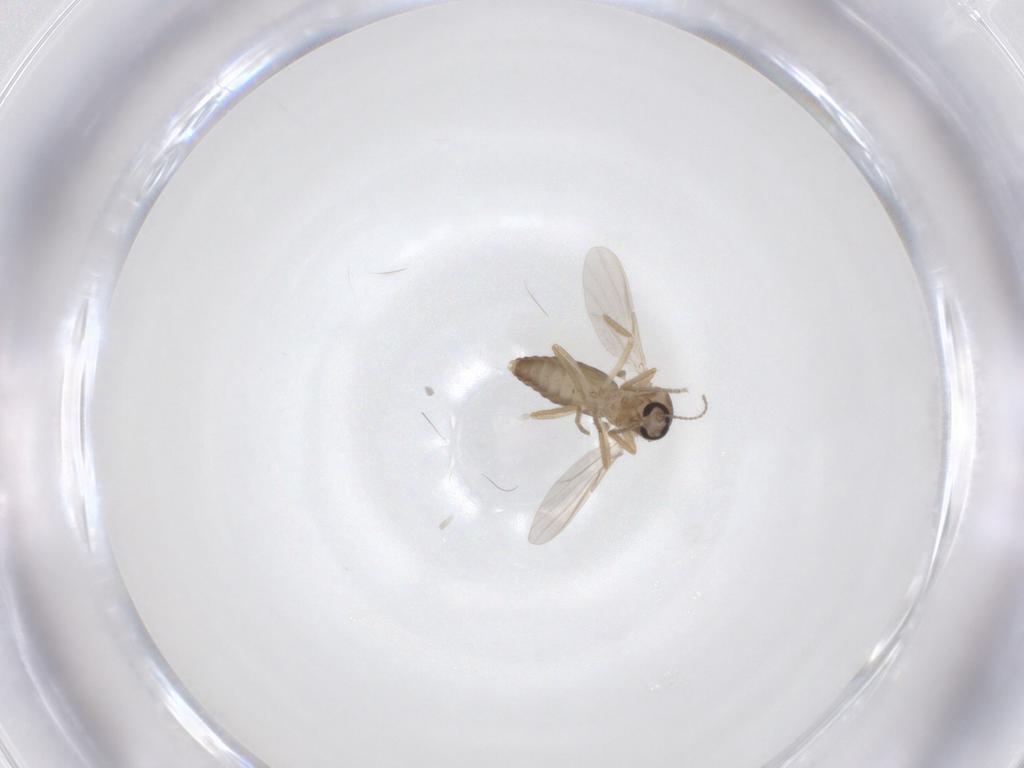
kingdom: Animalia
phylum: Arthropoda
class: Insecta
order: Diptera
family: Ceratopogonidae
